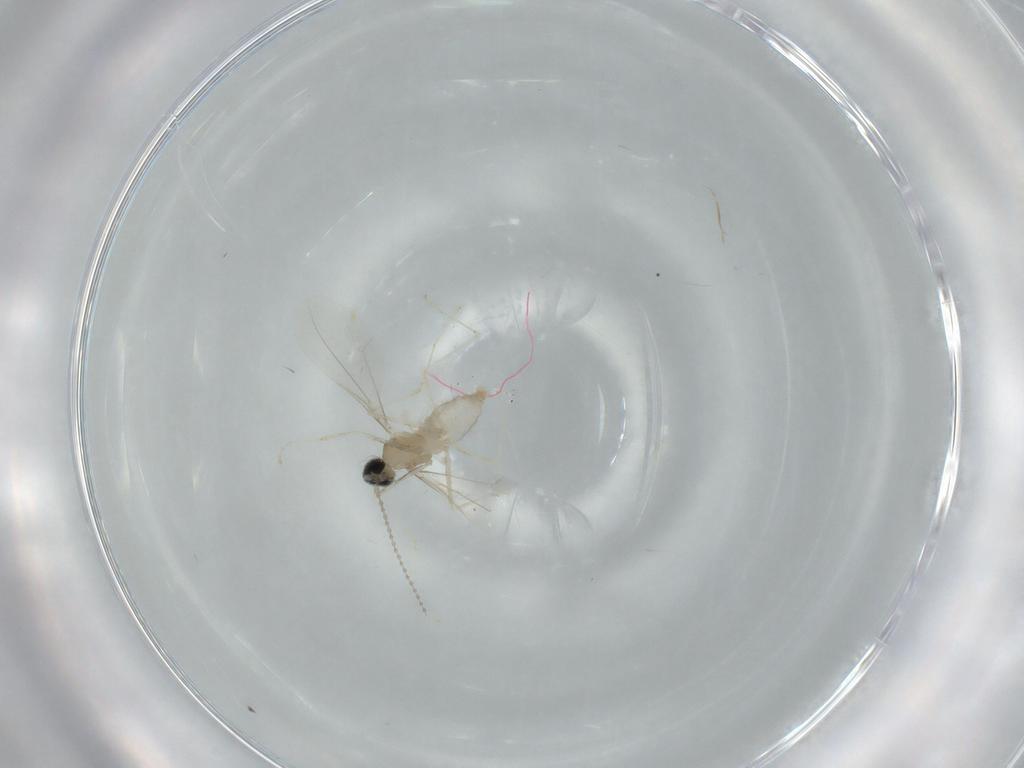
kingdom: Animalia
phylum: Arthropoda
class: Insecta
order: Diptera
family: Cecidomyiidae
